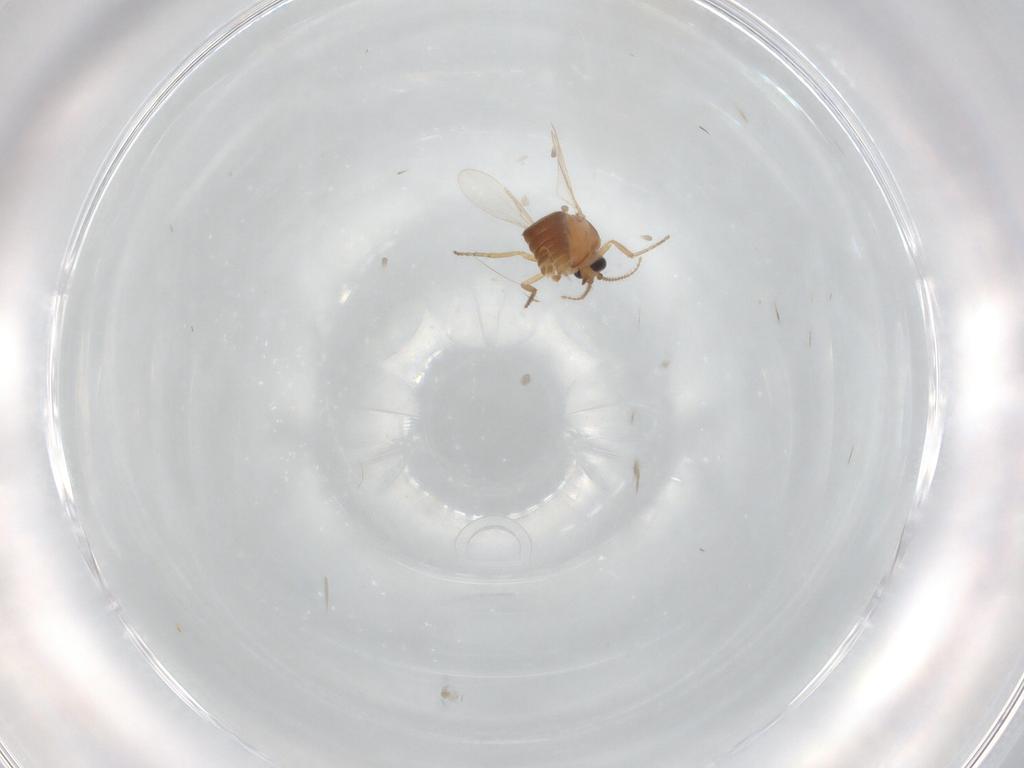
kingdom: Animalia
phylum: Arthropoda
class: Insecta
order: Diptera
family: Ceratopogonidae
